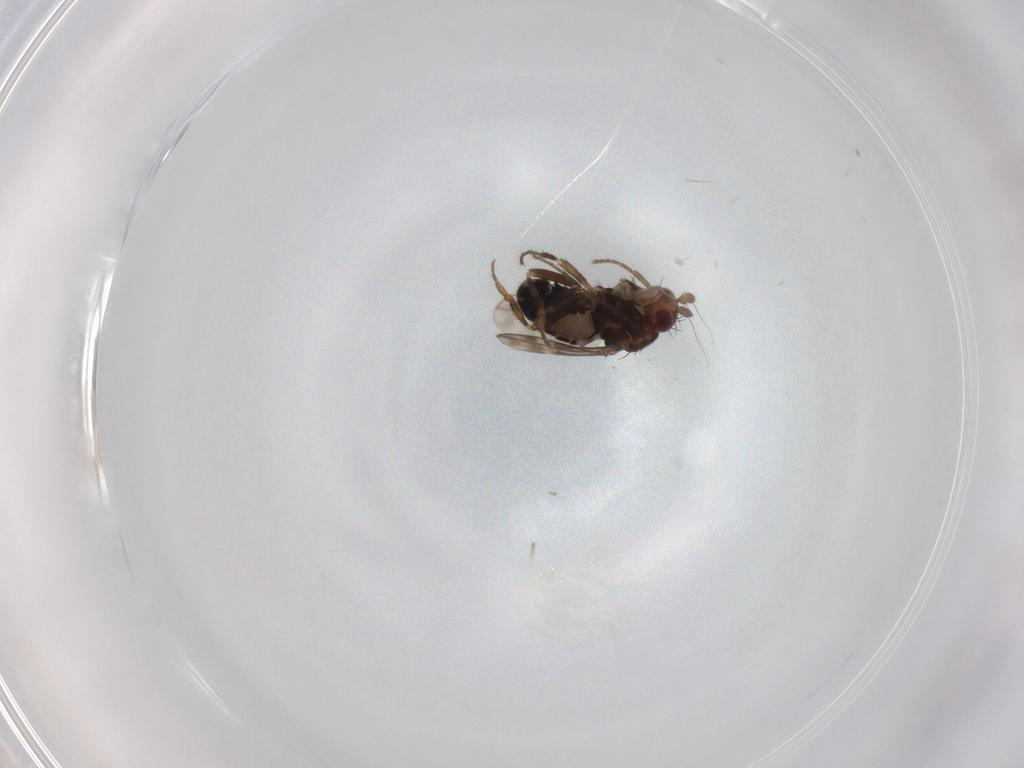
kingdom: Animalia
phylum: Arthropoda
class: Insecta
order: Diptera
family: Sphaeroceridae
